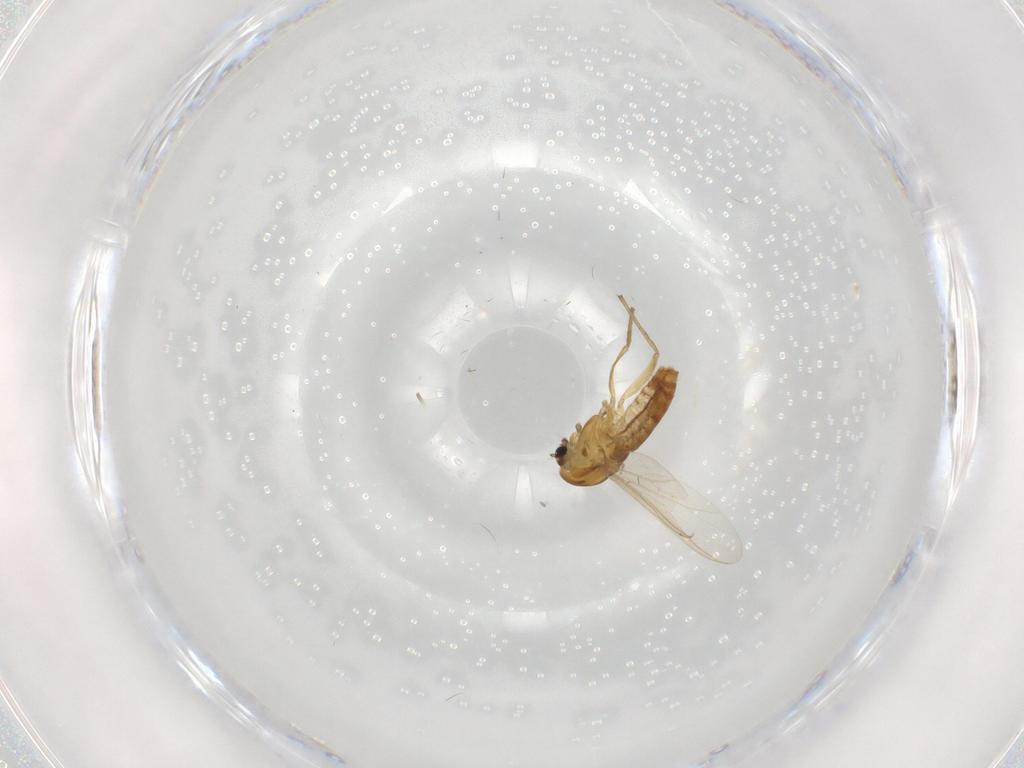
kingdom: Animalia
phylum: Arthropoda
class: Insecta
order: Diptera
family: Chironomidae
